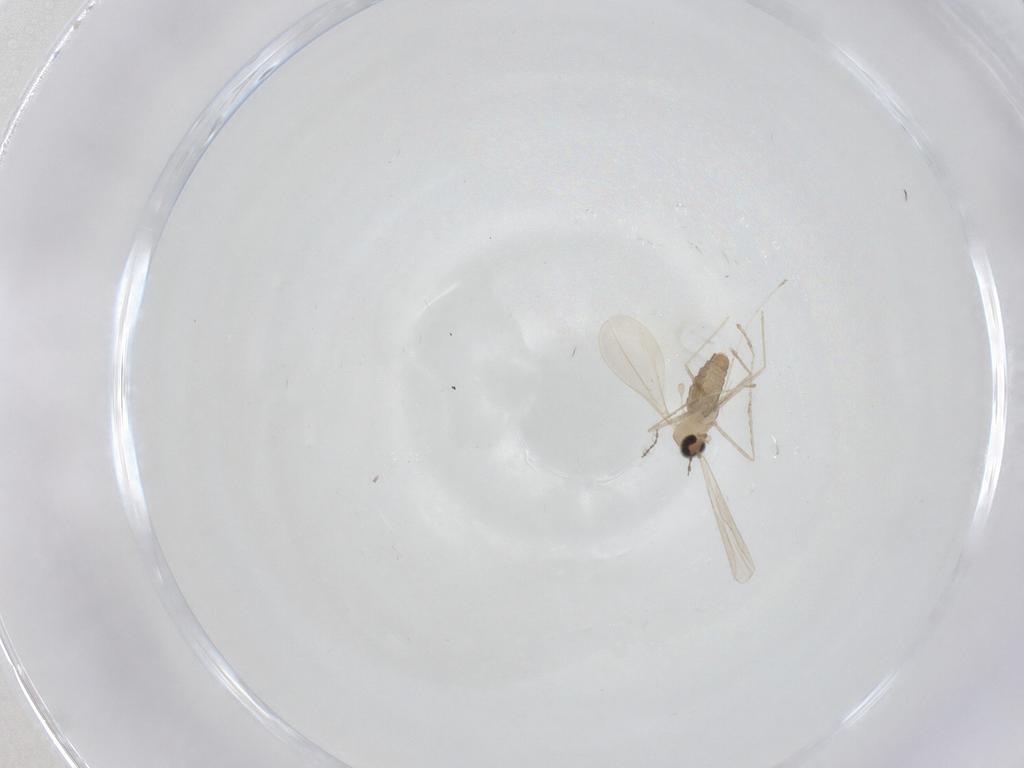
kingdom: Animalia
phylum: Arthropoda
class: Insecta
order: Diptera
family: Cecidomyiidae
